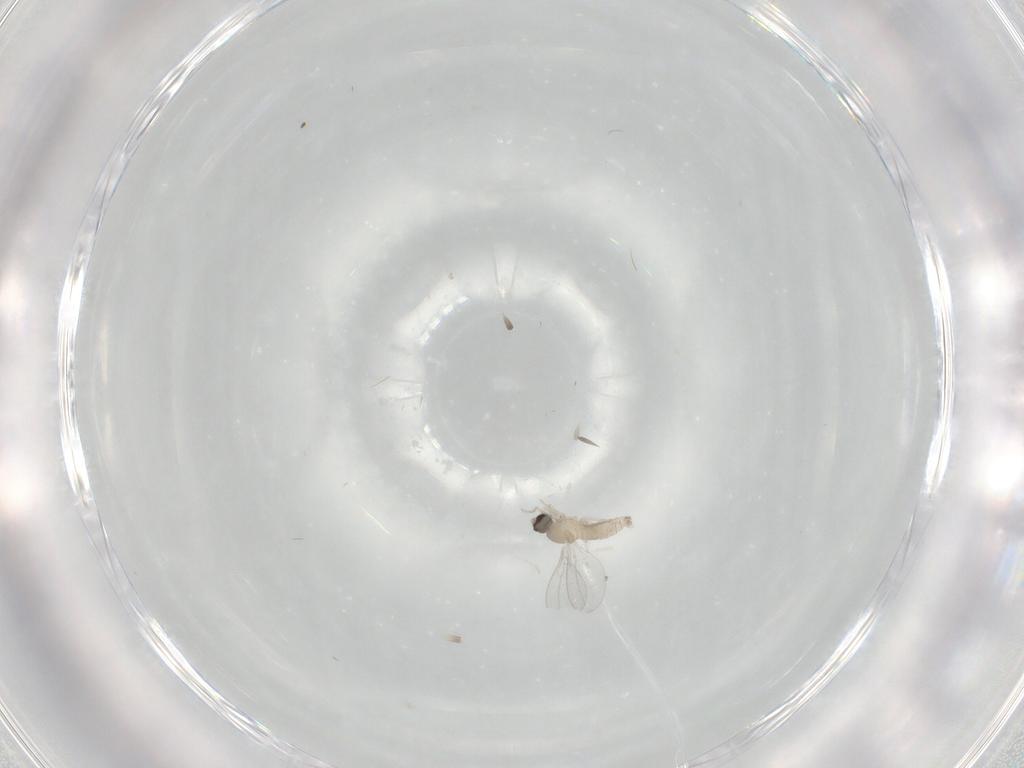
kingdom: Animalia
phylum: Arthropoda
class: Insecta
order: Diptera
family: Cecidomyiidae
